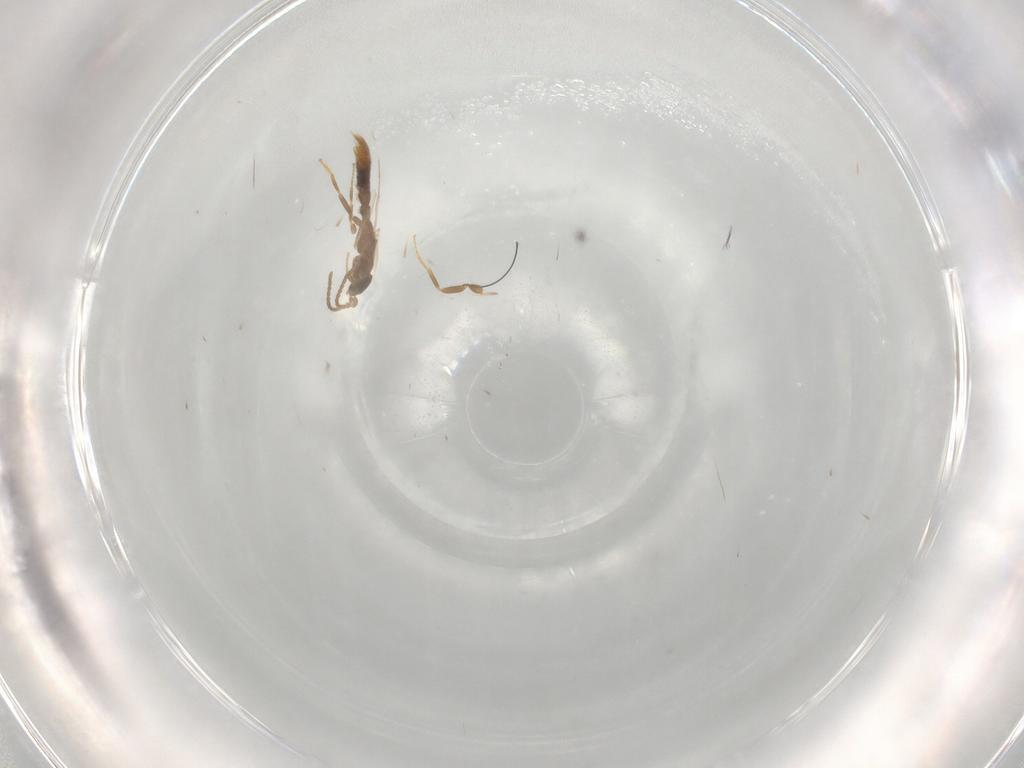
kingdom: Animalia
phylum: Arthropoda
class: Insecta
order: Hymenoptera
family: Formicidae
